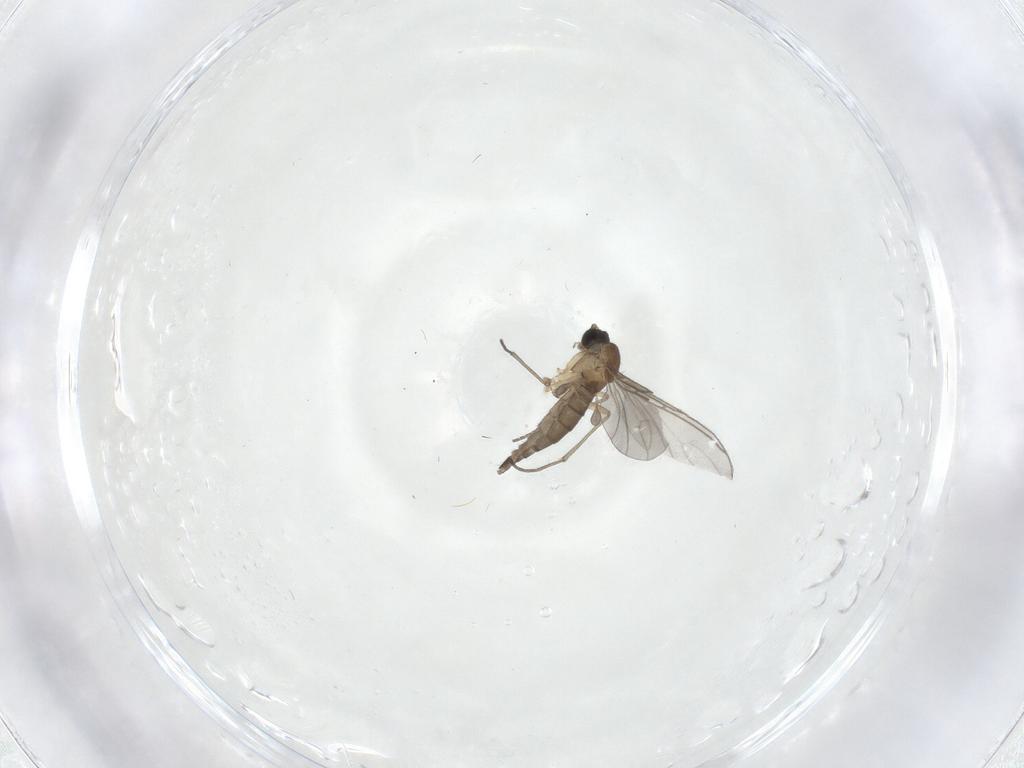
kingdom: Animalia
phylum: Arthropoda
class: Insecta
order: Diptera
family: Sciaridae
